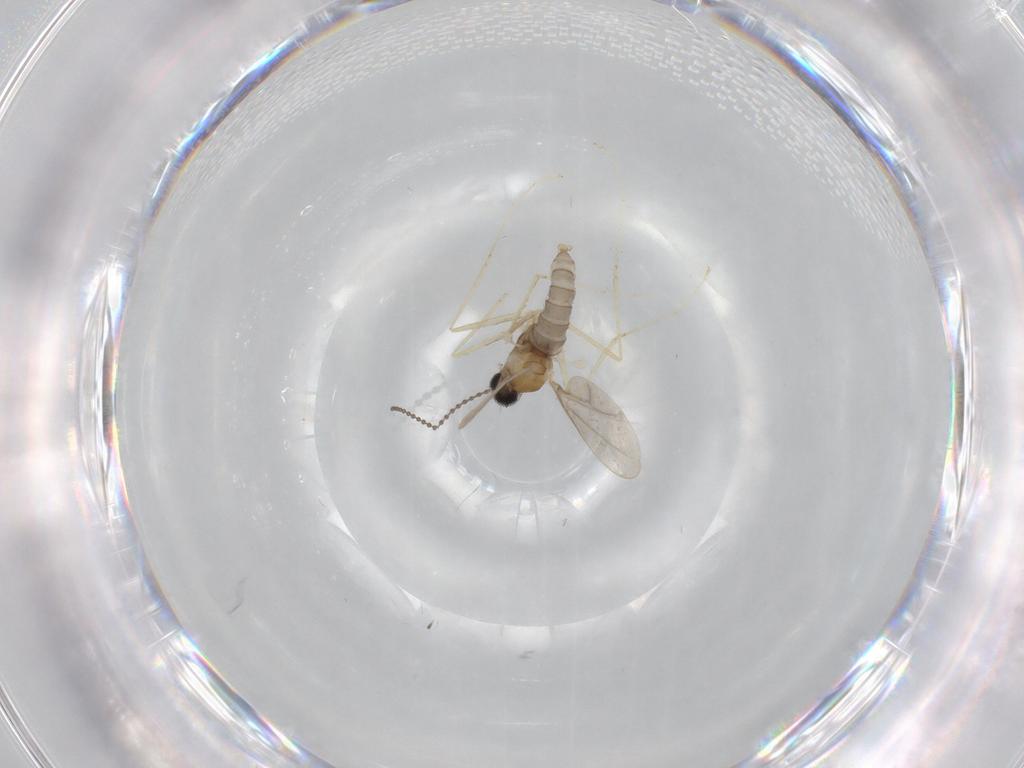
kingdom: Animalia
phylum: Arthropoda
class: Insecta
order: Diptera
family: Cecidomyiidae
